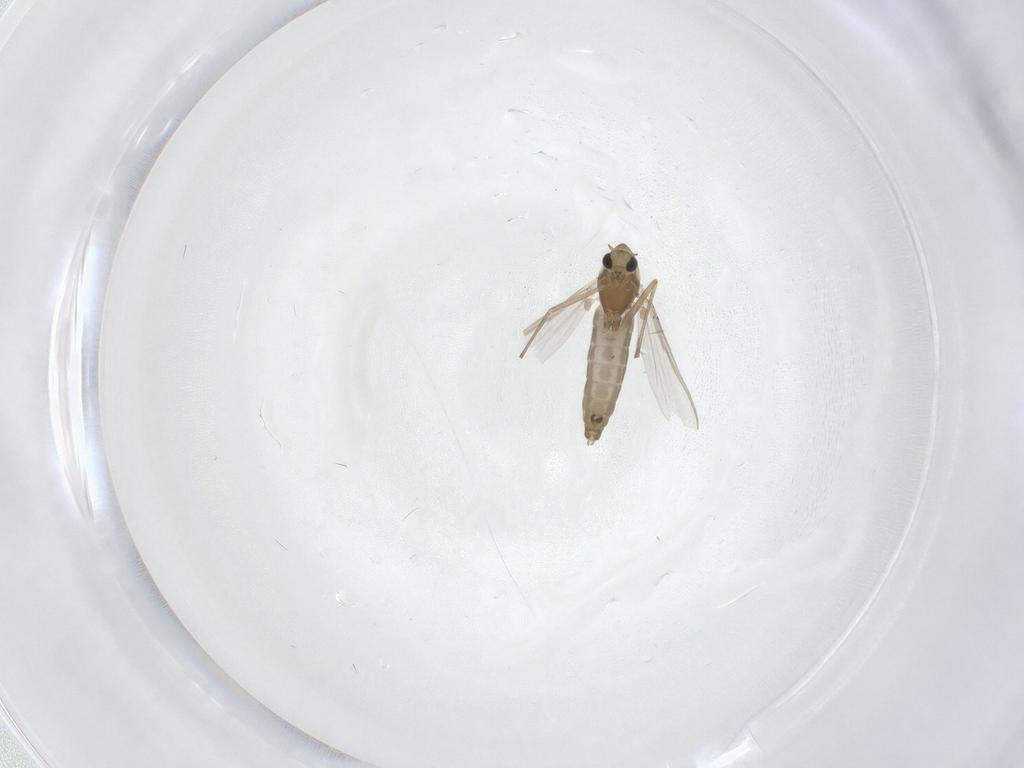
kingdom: Animalia
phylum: Arthropoda
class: Insecta
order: Diptera
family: Chironomidae
